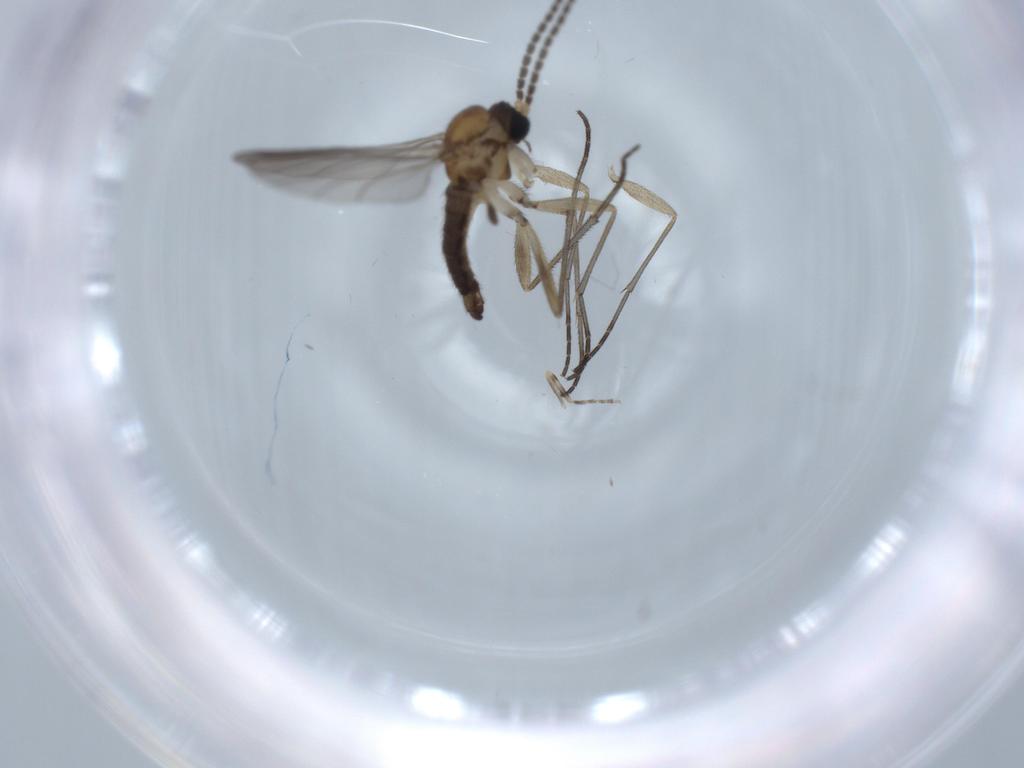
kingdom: Animalia
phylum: Arthropoda
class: Insecta
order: Diptera
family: Sciaridae
